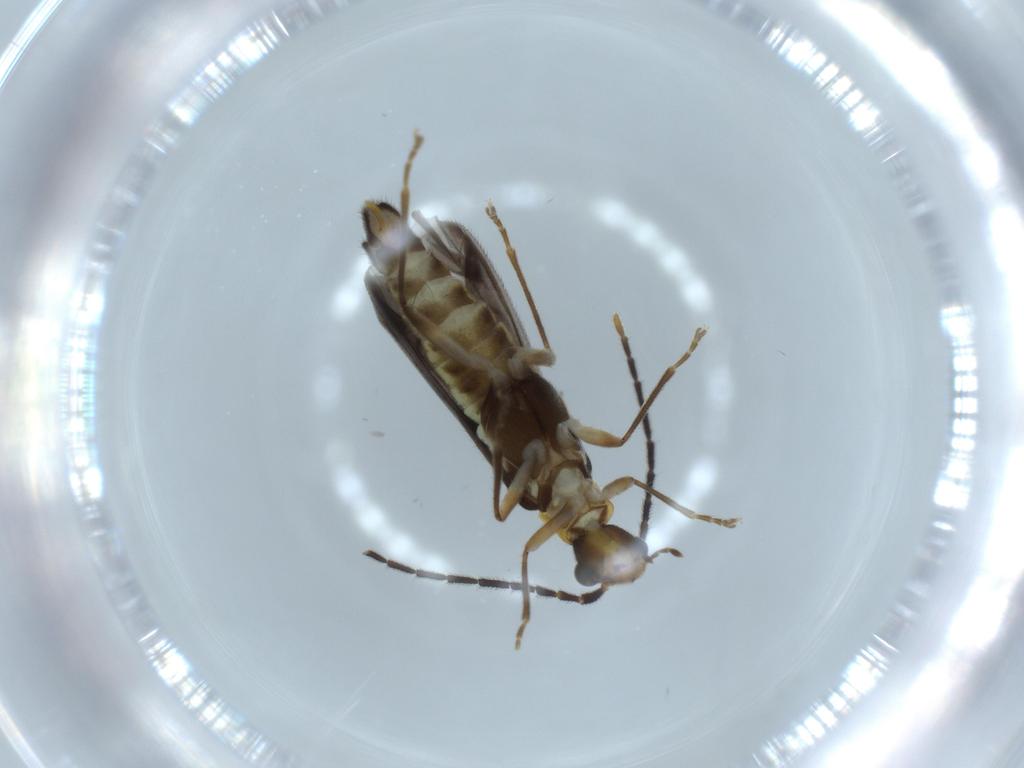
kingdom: Animalia
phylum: Arthropoda
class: Insecta
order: Coleoptera
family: Cantharidae
